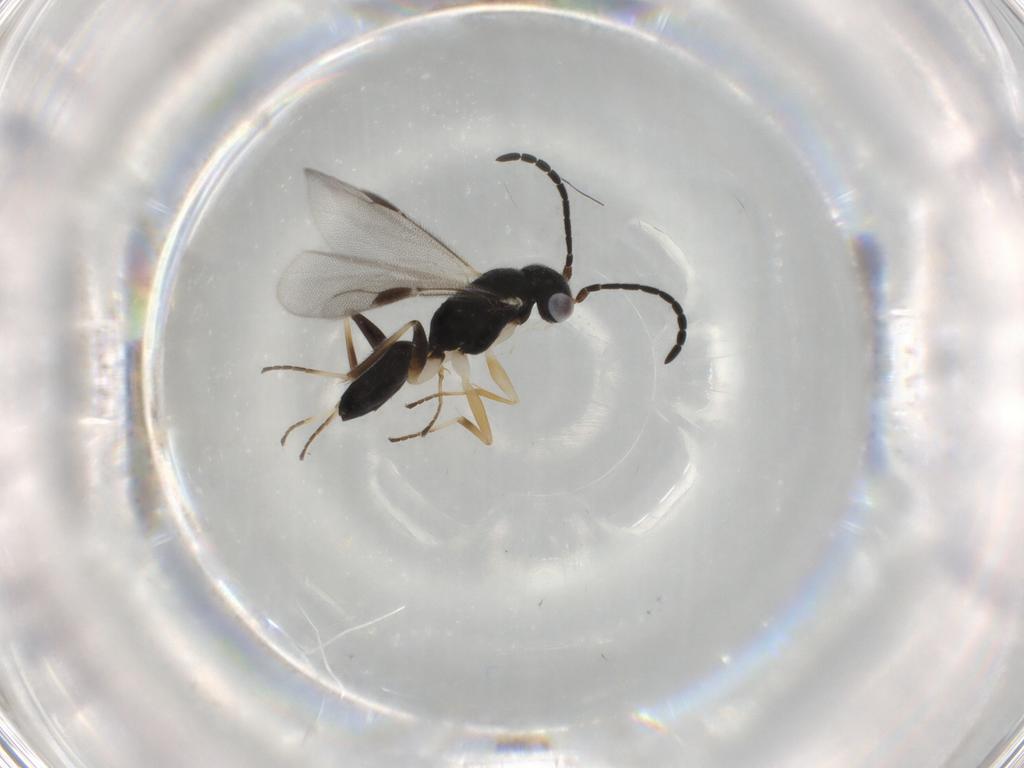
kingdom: Animalia
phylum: Arthropoda
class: Insecta
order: Hymenoptera
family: Dryinidae
